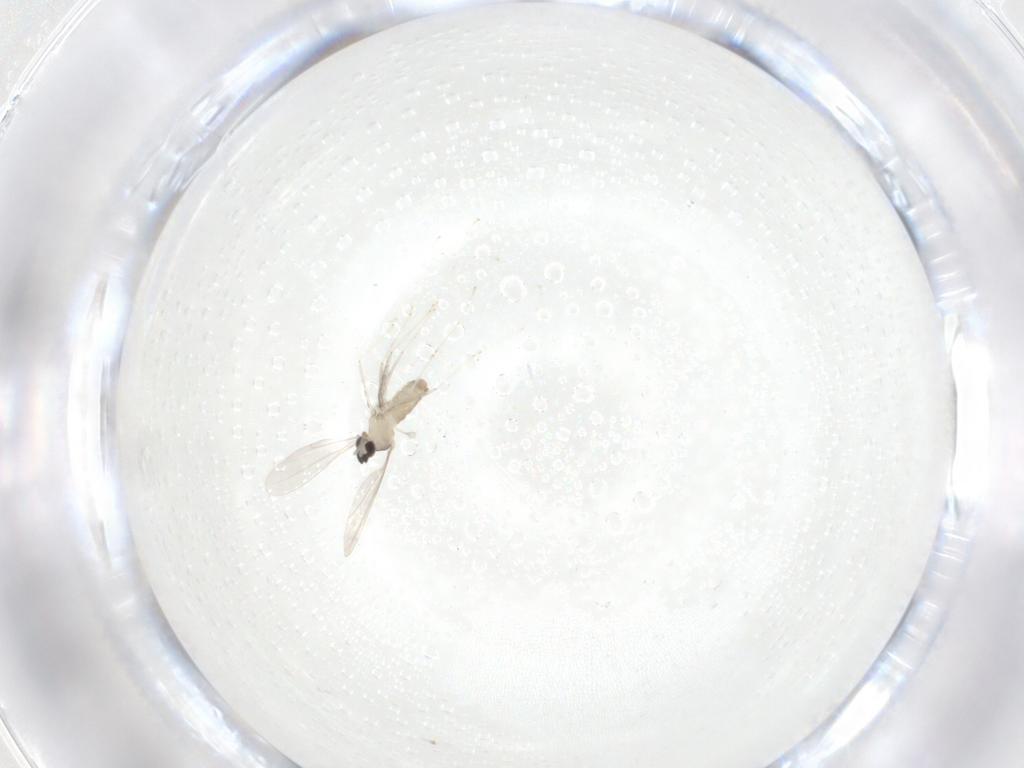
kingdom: Animalia
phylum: Arthropoda
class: Insecta
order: Diptera
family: Cecidomyiidae
